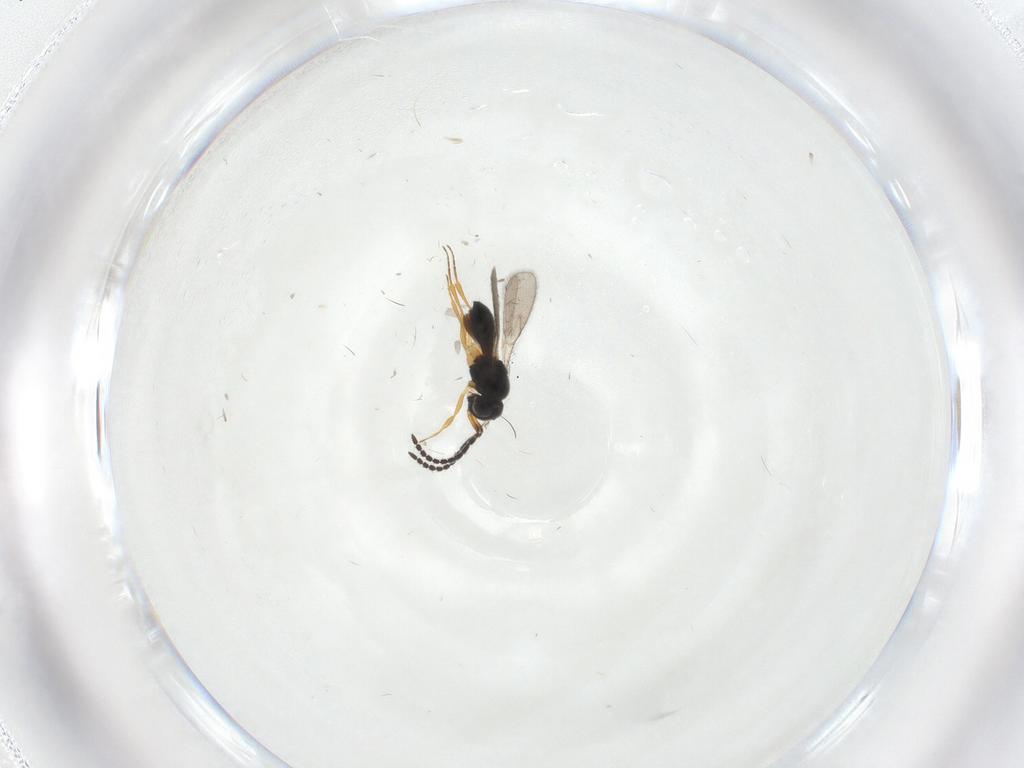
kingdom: Animalia
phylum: Arthropoda
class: Insecta
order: Hymenoptera
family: Scelionidae
